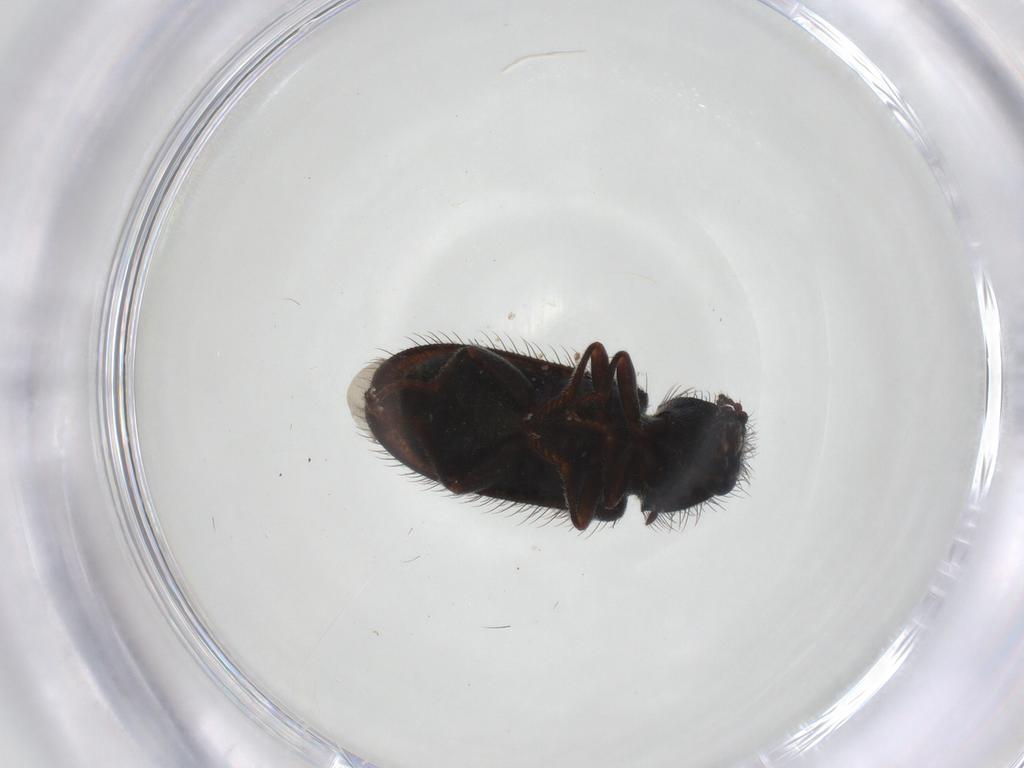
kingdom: Animalia
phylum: Arthropoda
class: Insecta
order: Coleoptera
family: Melyridae
